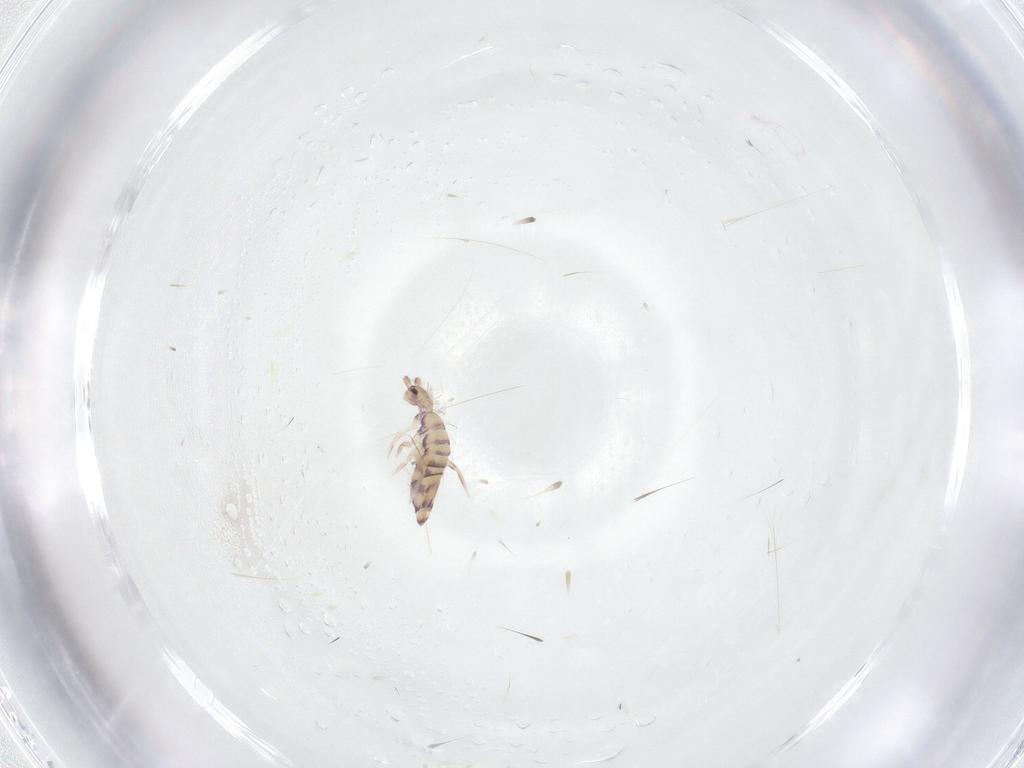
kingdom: Animalia
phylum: Arthropoda
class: Collembola
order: Entomobryomorpha
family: Entomobryidae
